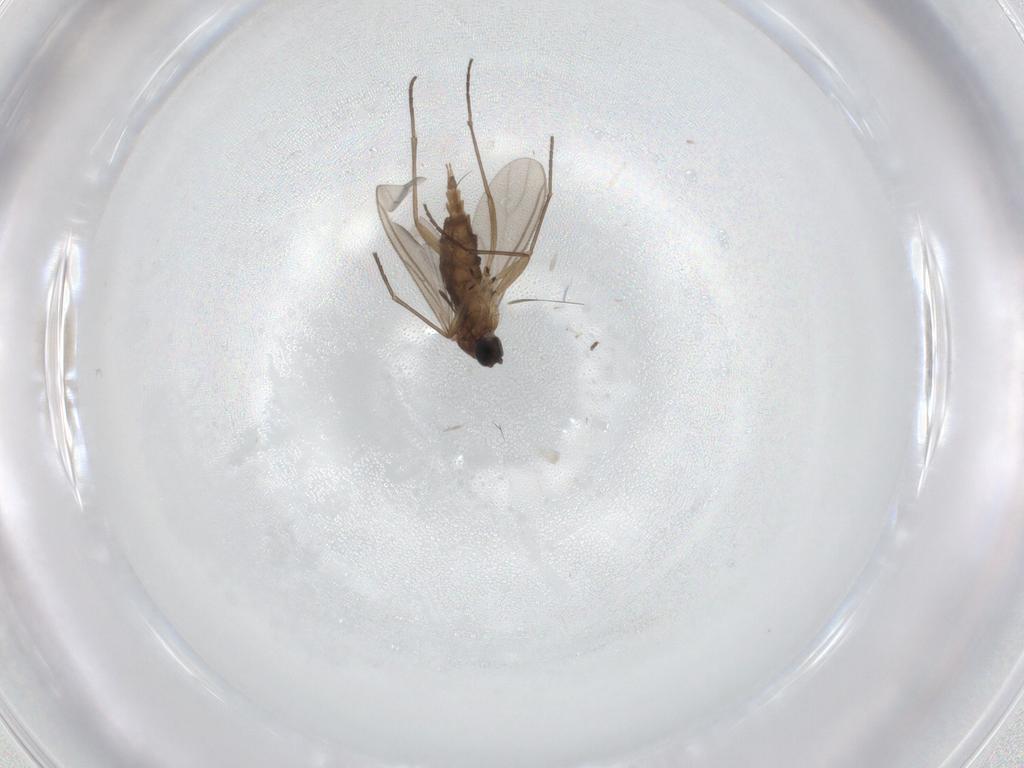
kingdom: Animalia
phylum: Arthropoda
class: Insecta
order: Diptera
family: Sciaridae
